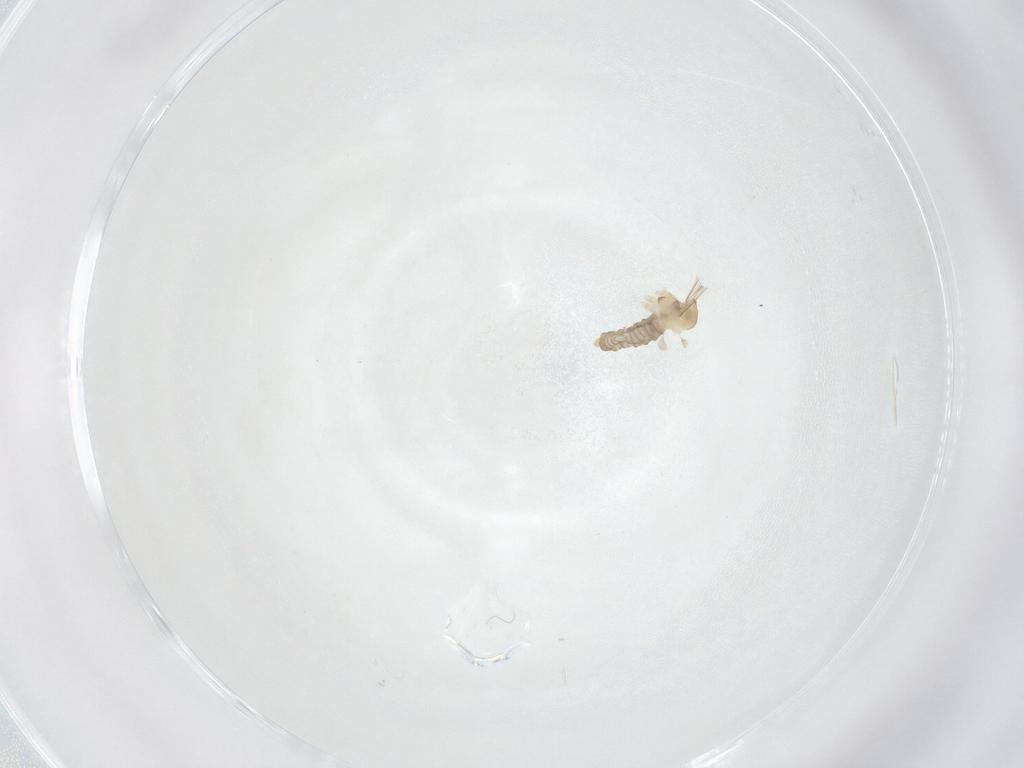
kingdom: Animalia
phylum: Arthropoda
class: Insecta
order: Diptera
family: Cecidomyiidae
